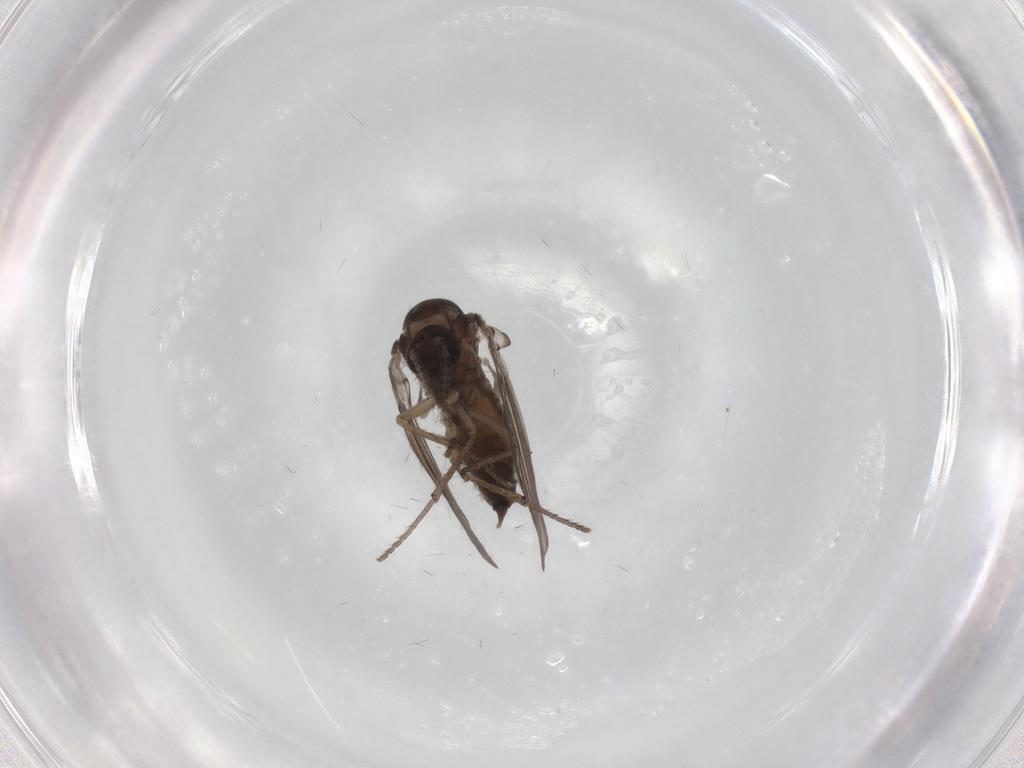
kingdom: Animalia
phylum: Arthropoda
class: Insecta
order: Diptera
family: Psychodidae
